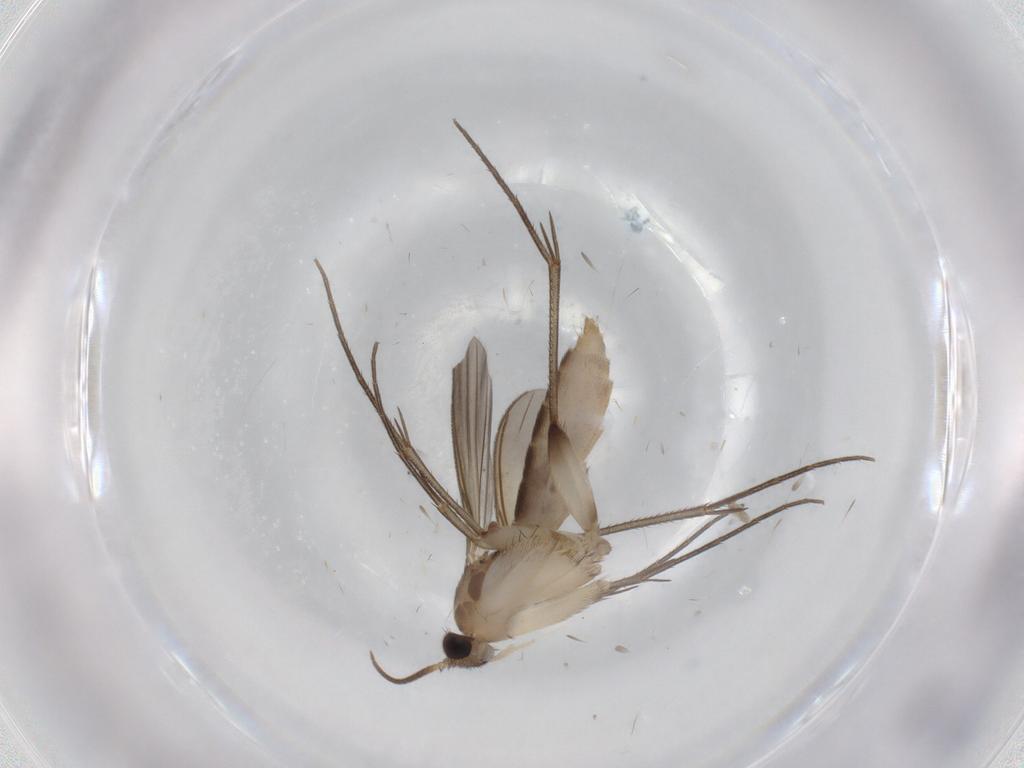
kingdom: Animalia
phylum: Arthropoda
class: Insecta
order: Diptera
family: Mycetophilidae
